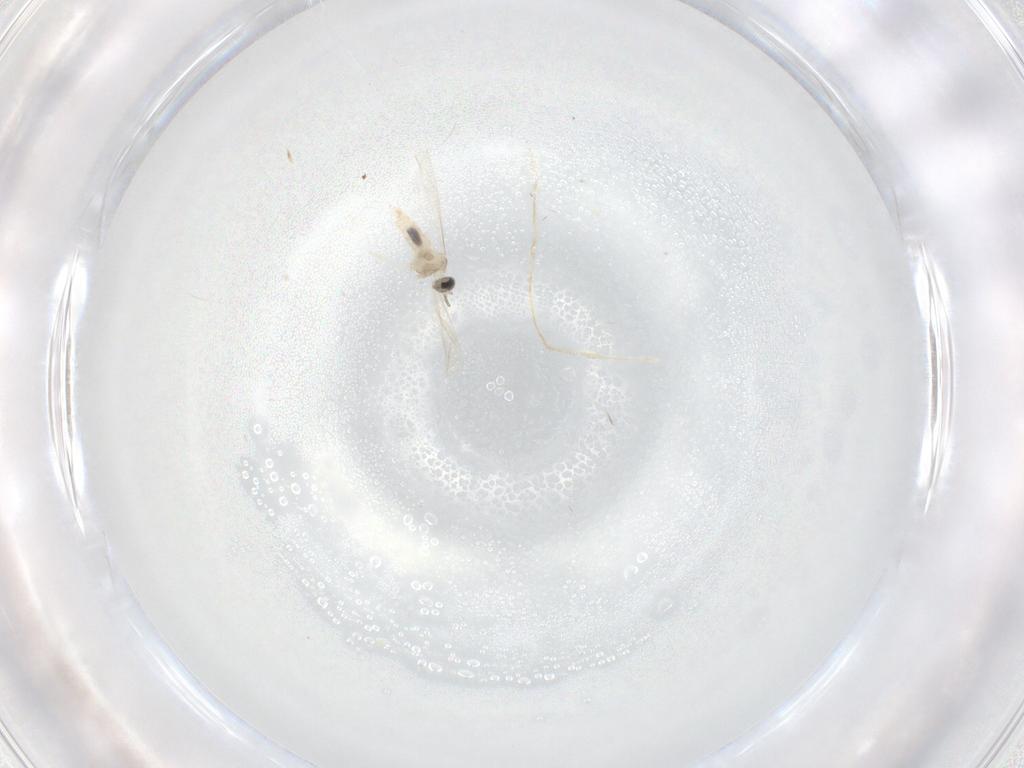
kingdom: Animalia
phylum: Arthropoda
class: Insecta
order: Diptera
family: Cecidomyiidae
